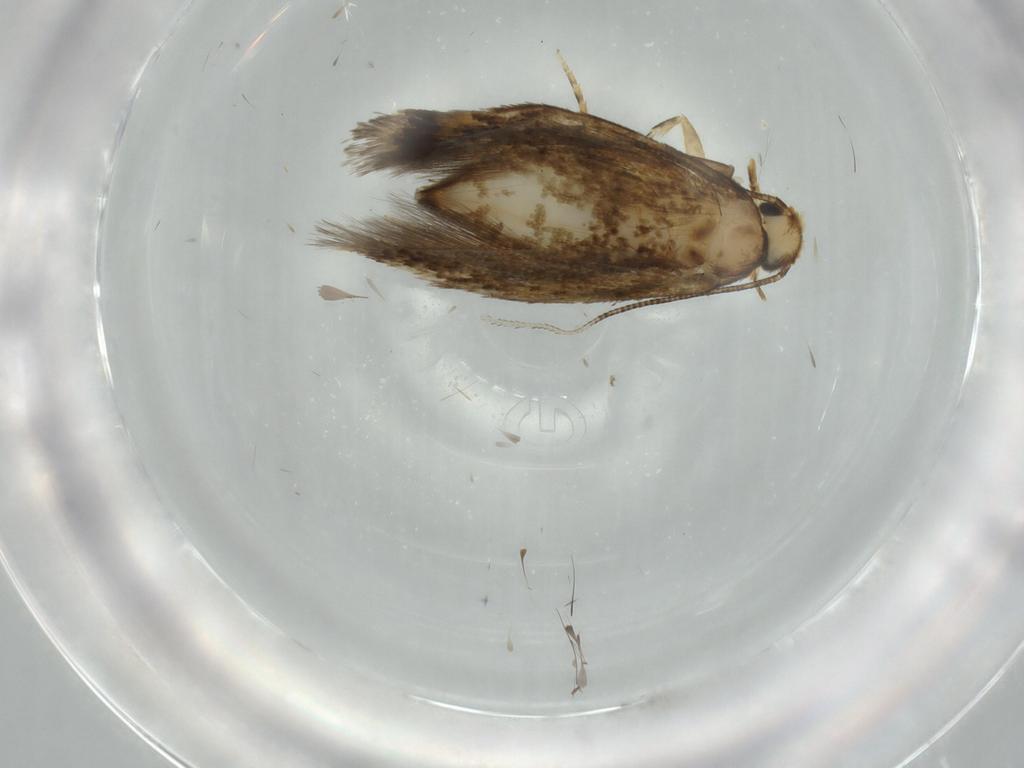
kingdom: Animalia
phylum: Arthropoda
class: Insecta
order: Lepidoptera
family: Tineidae
